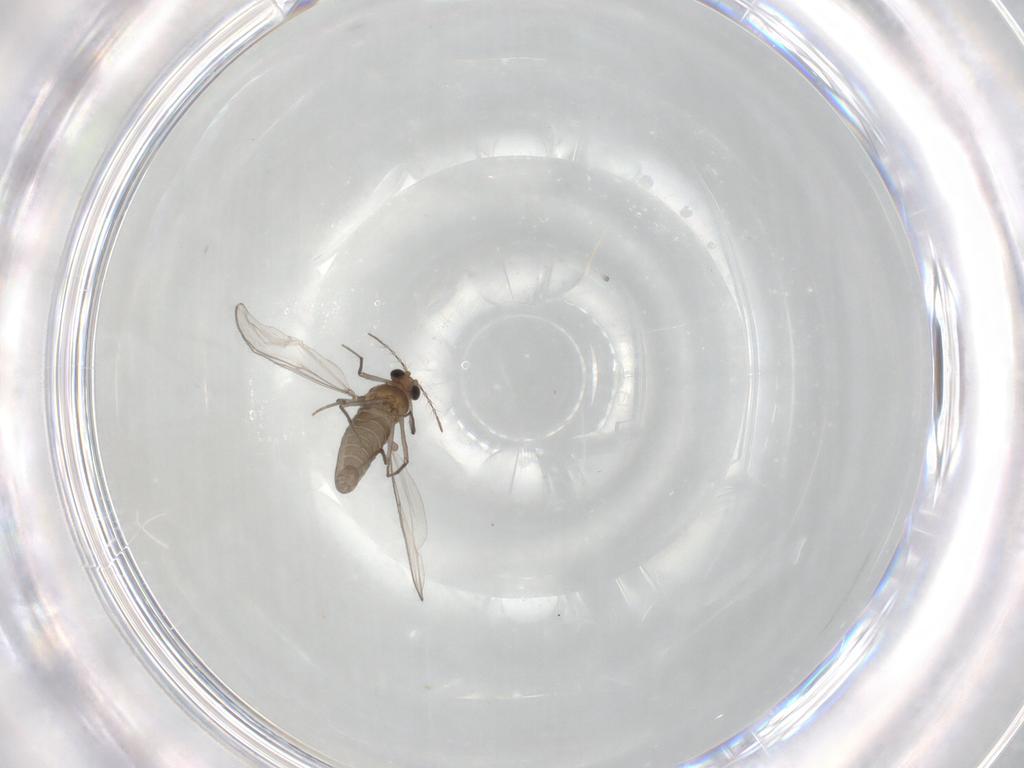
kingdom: Animalia
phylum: Arthropoda
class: Insecta
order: Diptera
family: Chironomidae
